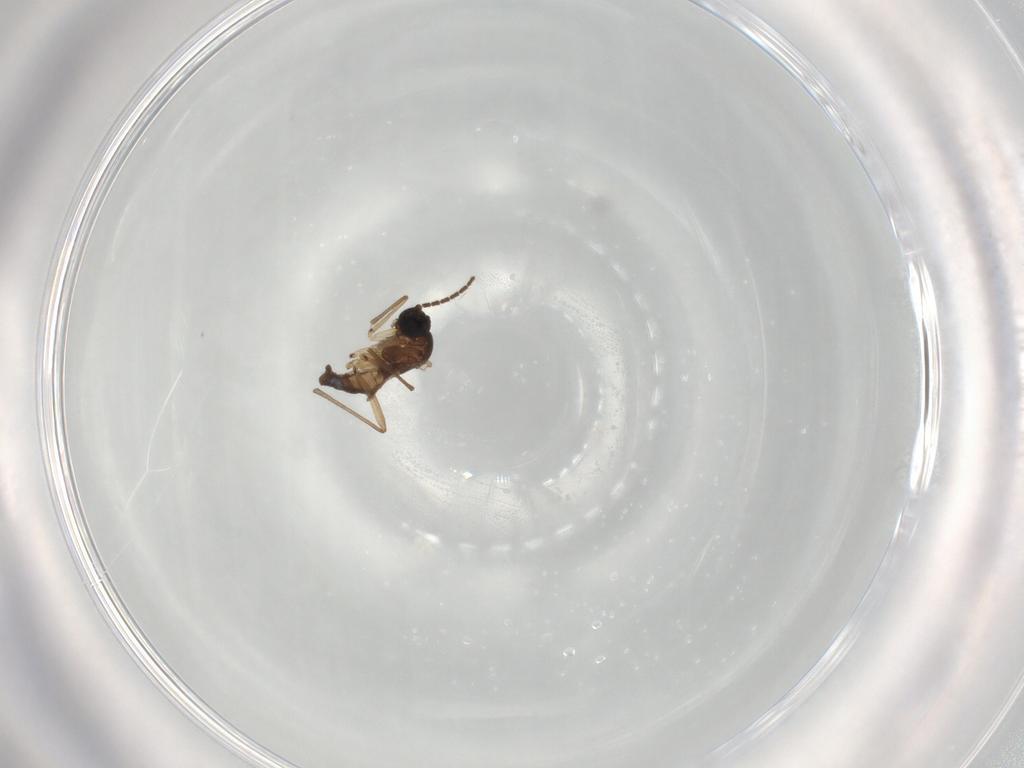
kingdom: Animalia
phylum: Arthropoda
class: Insecta
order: Diptera
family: Sciaridae
